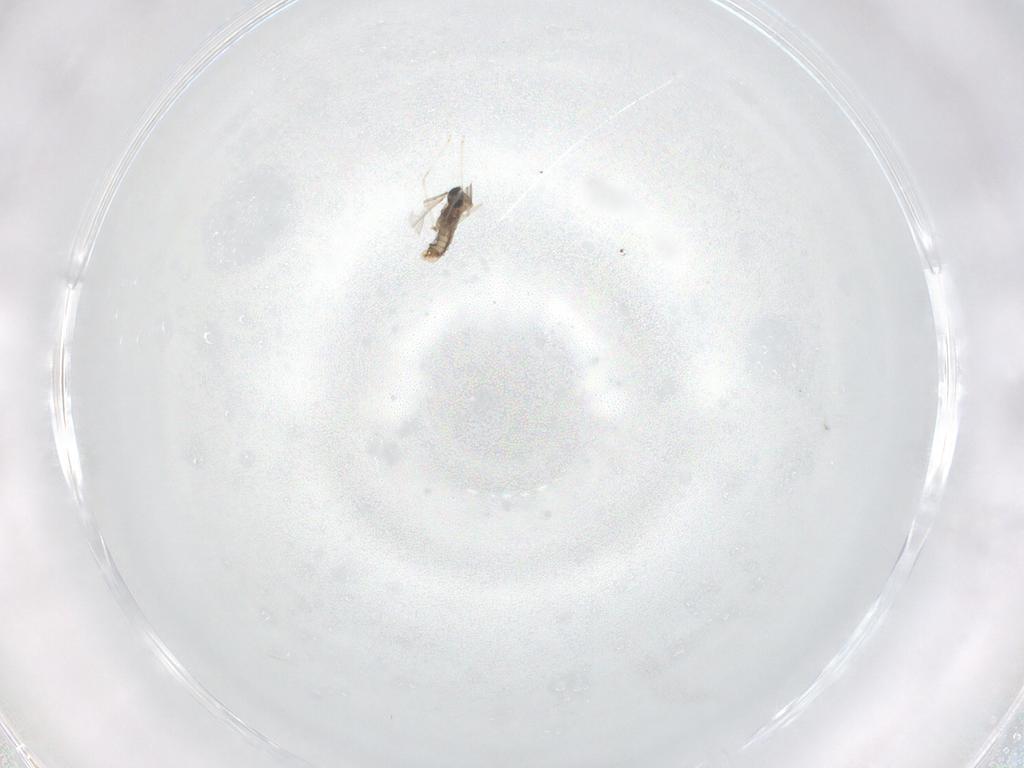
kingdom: Animalia
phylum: Arthropoda
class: Insecta
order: Diptera
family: Cecidomyiidae
